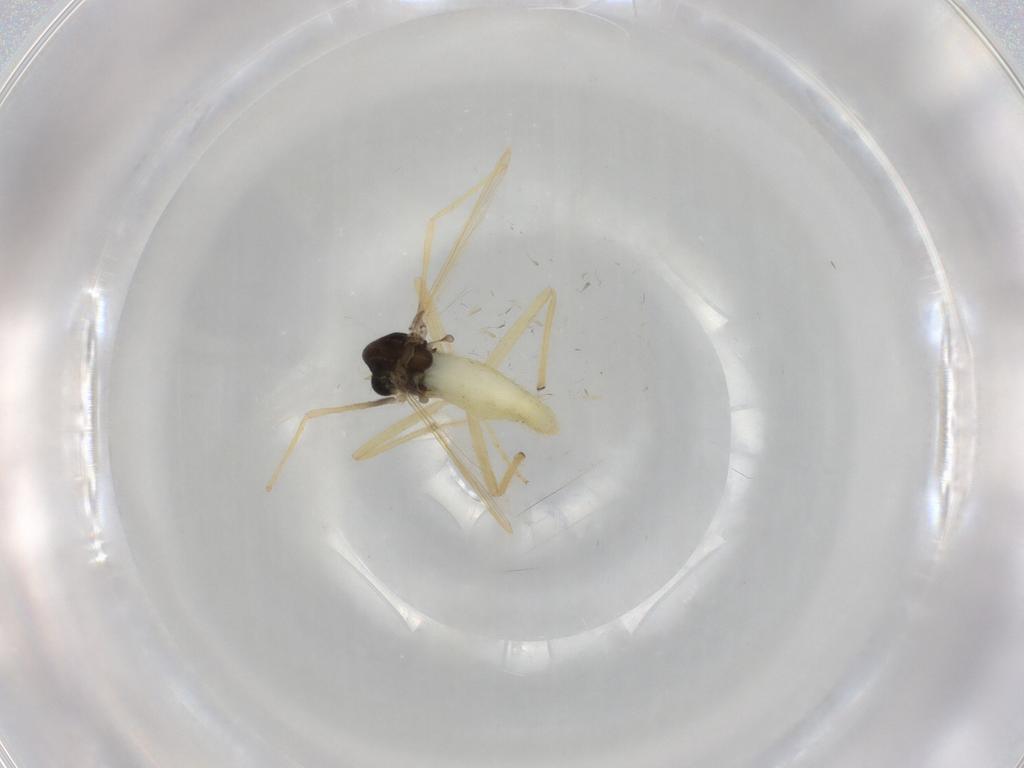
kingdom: Animalia
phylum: Arthropoda
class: Insecta
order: Diptera
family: Chironomidae
